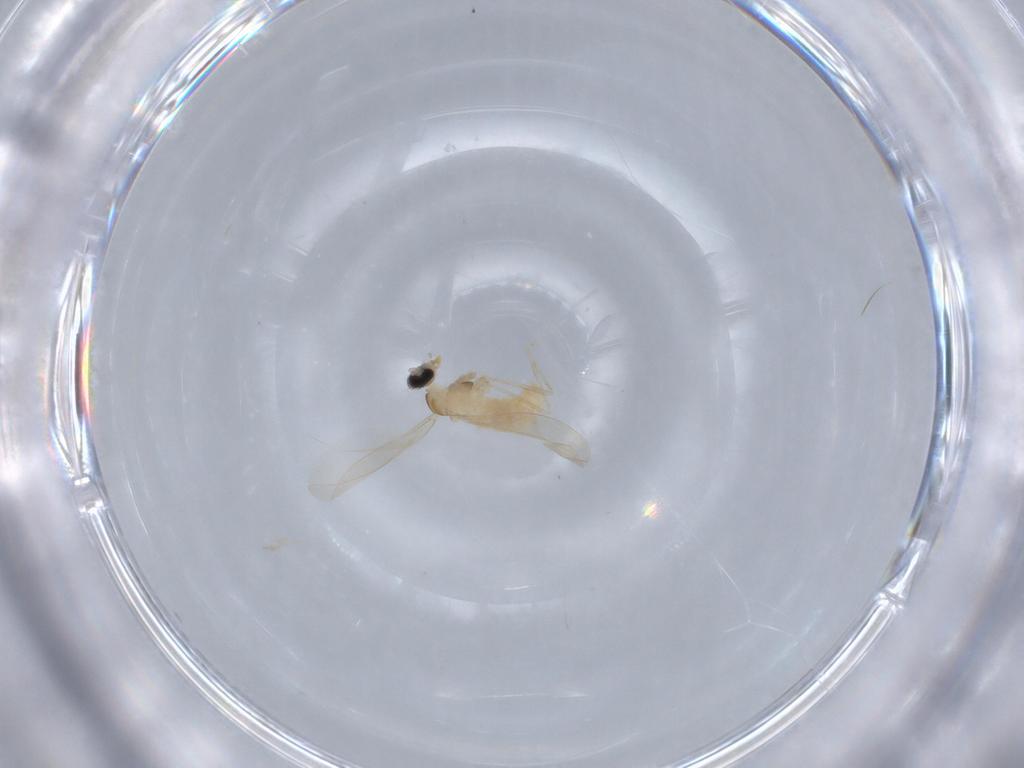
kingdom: Animalia
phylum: Arthropoda
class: Insecta
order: Diptera
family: Cecidomyiidae
